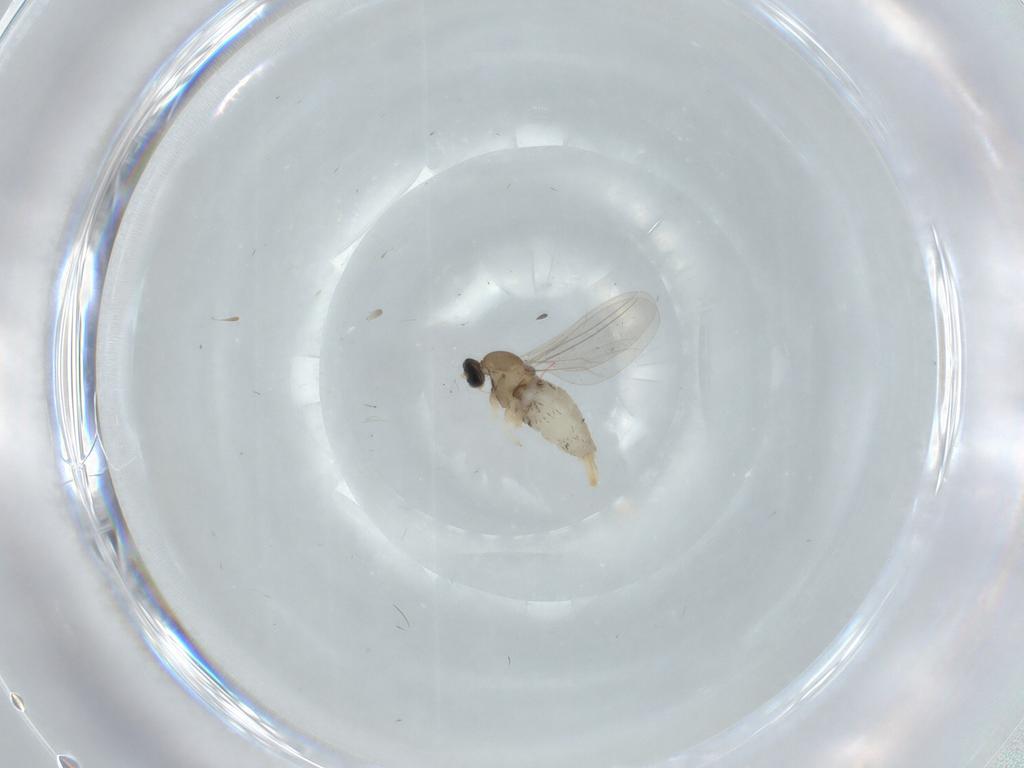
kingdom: Animalia
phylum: Arthropoda
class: Insecta
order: Diptera
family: Cecidomyiidae
